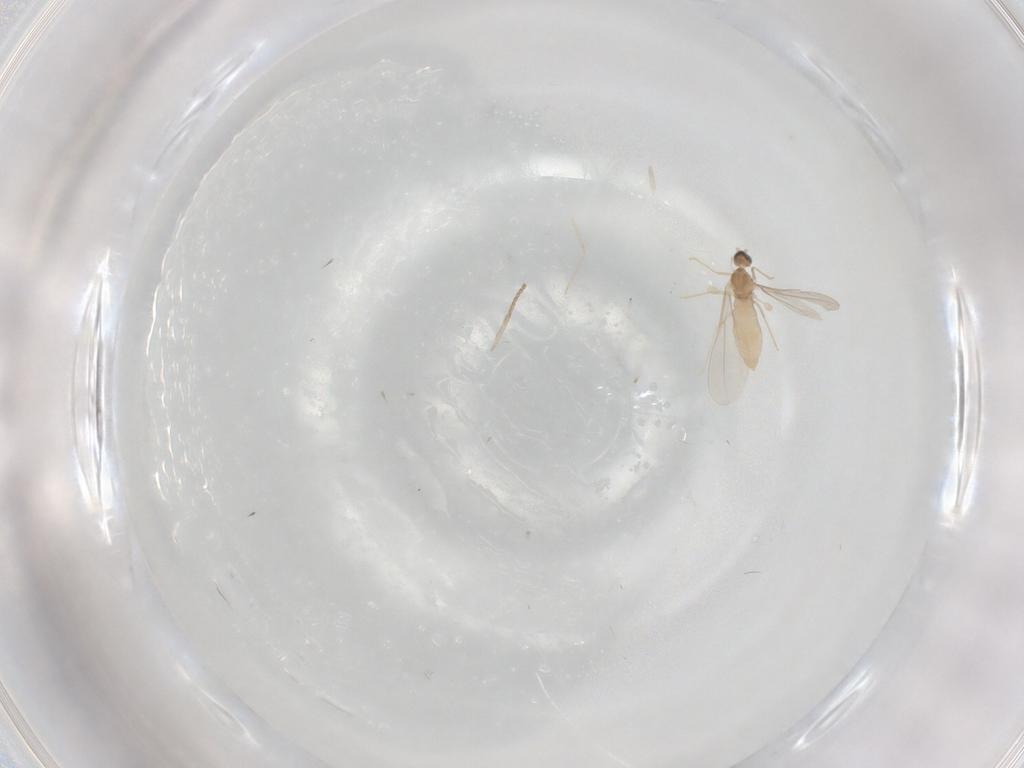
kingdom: Animalia
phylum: Arthropoda
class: Insecta
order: Diptera
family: Cecidomyiidae
